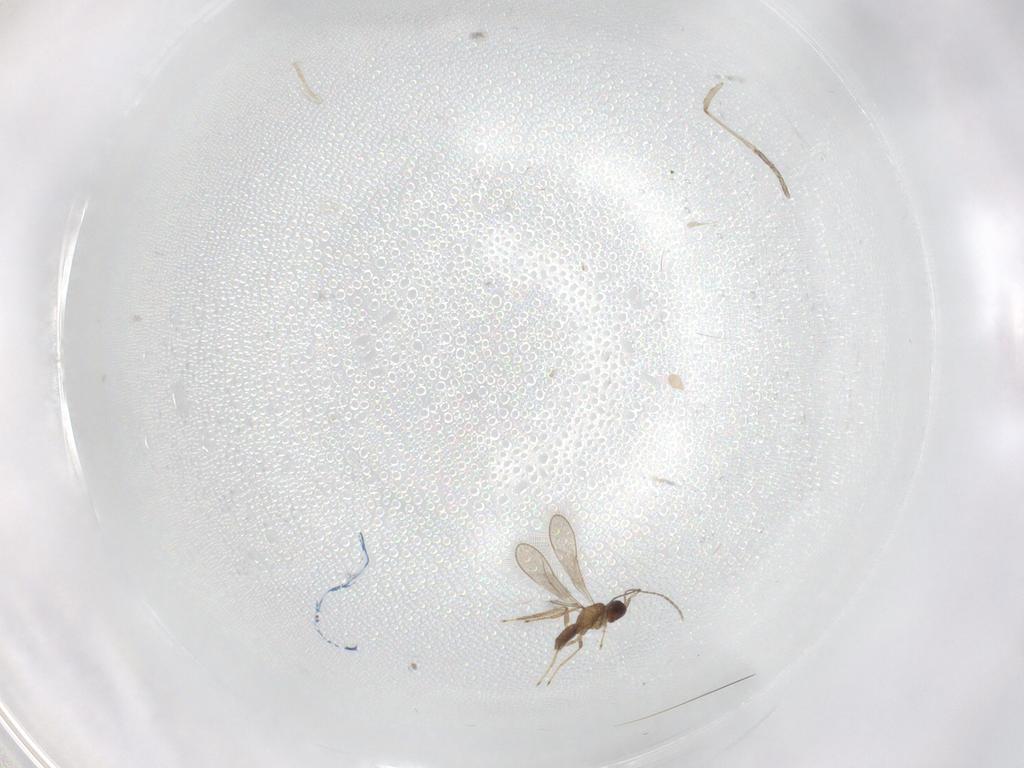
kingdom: Animalia
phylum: Arthropoda
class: Insecta
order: Hymenoptera
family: Mymaridae
